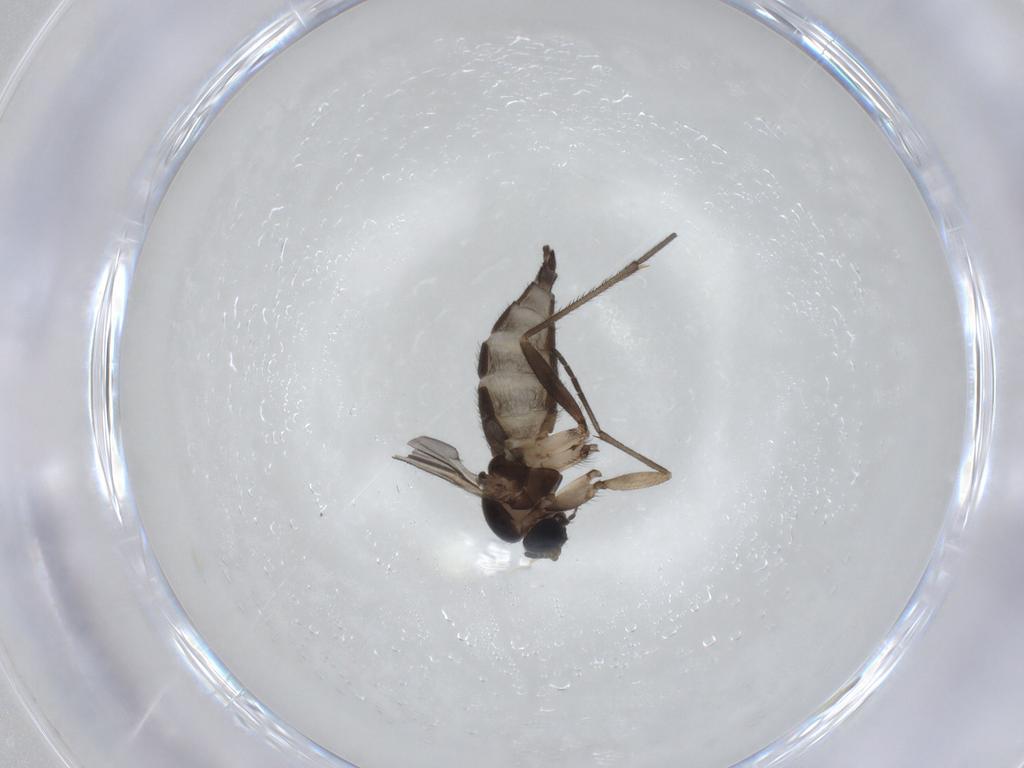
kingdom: Animalia
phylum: Arthropoda
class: Insecta
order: Diptera
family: Sciaridae
